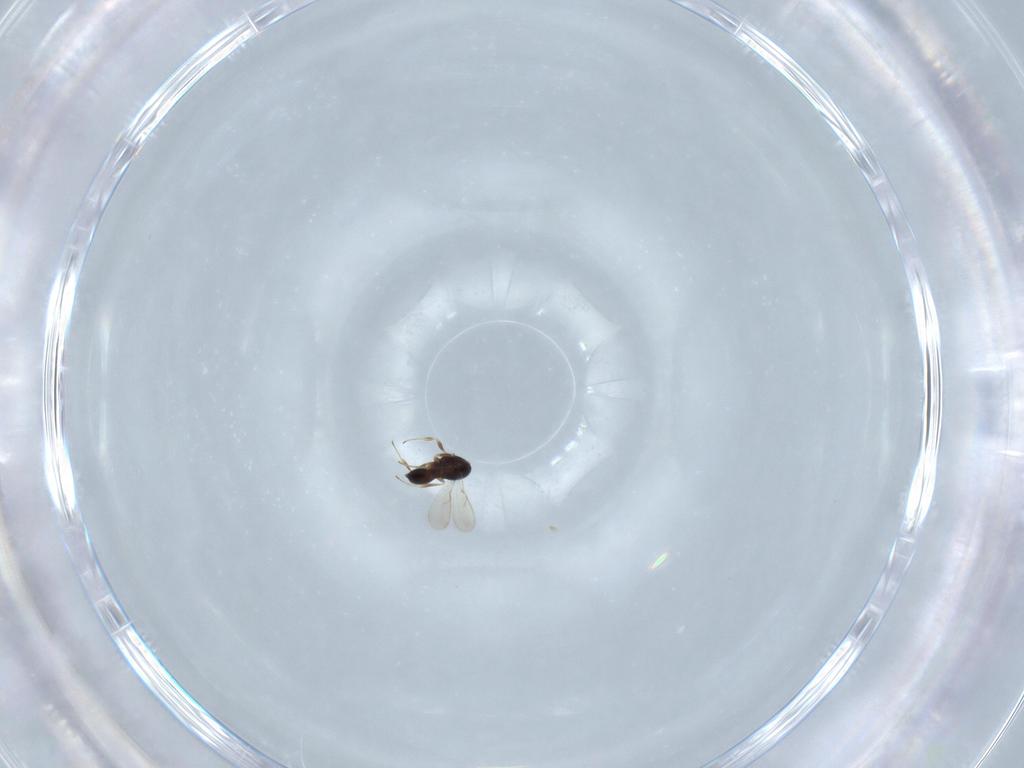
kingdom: Animalia
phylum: Arthropoda
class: Insecta
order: Hymenoptera
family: Scelionidae
